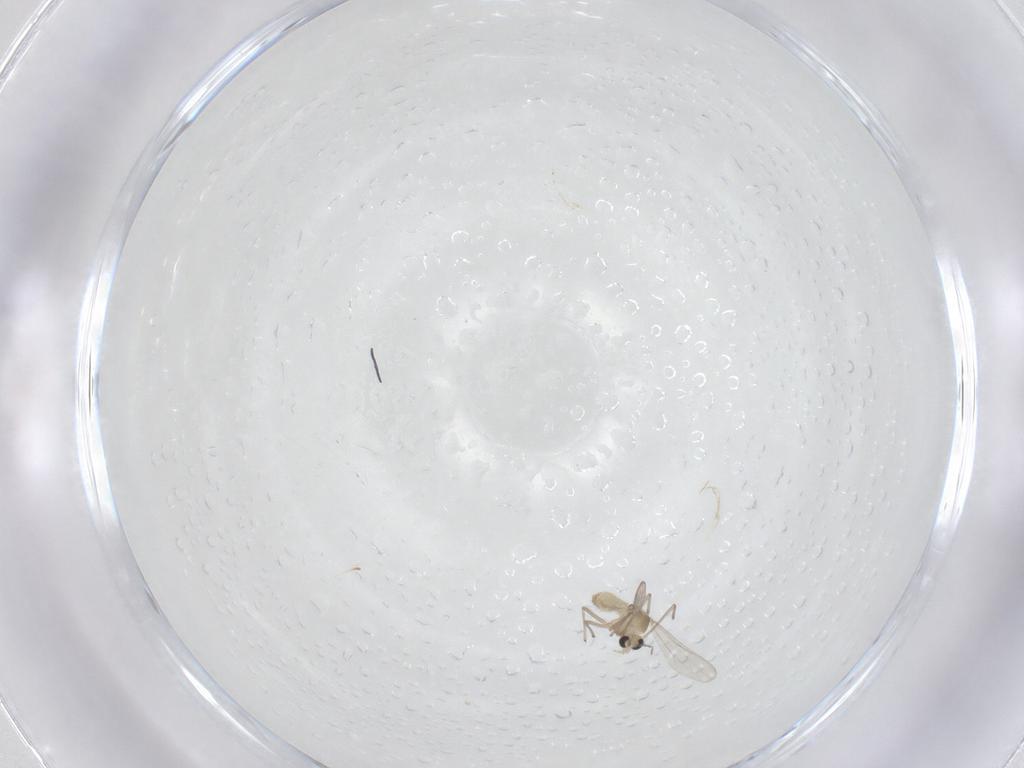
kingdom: Animalia
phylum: Arthropoda
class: Insecta
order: Diptera
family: Chironomidae
